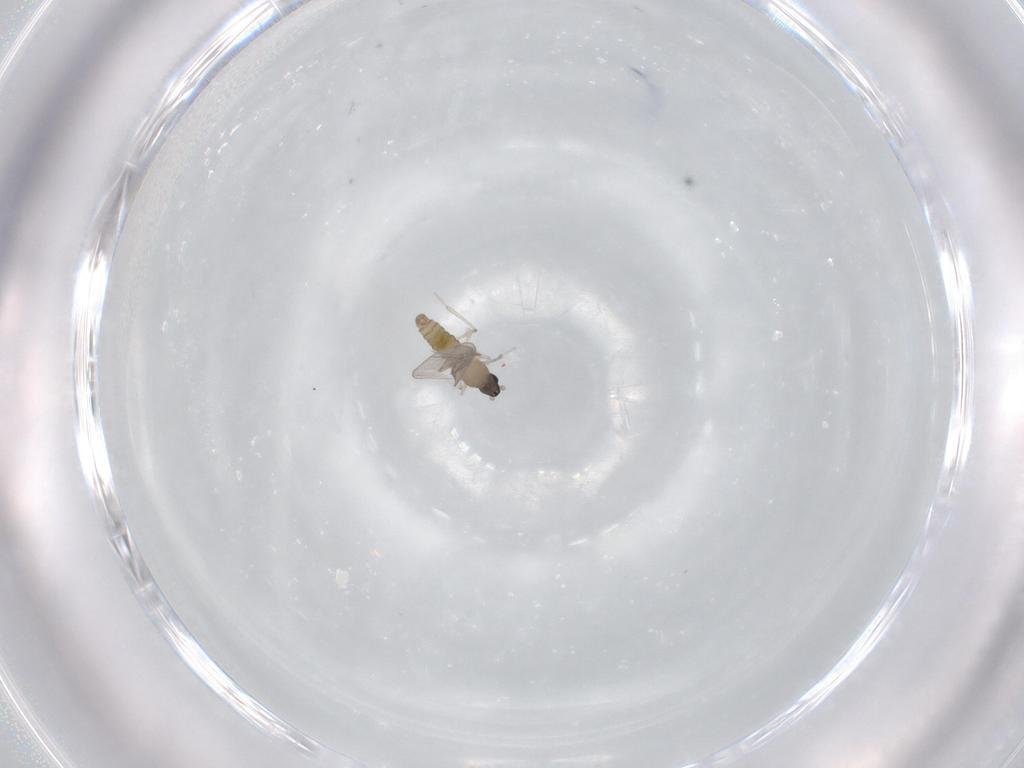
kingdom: Animalia
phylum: Arthropoda
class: Insecta
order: Diptera
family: Cecidomyiidae
